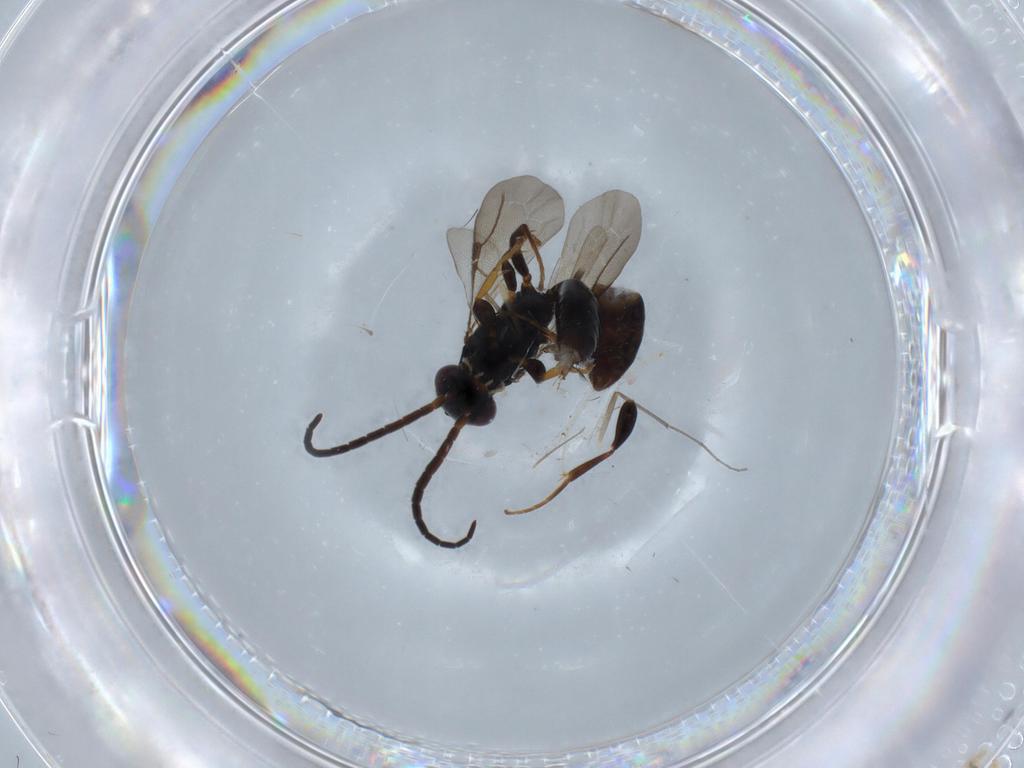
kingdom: Animalia
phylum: Arthropoda
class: Insecta
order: Hymenoptera
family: Bethylidae
